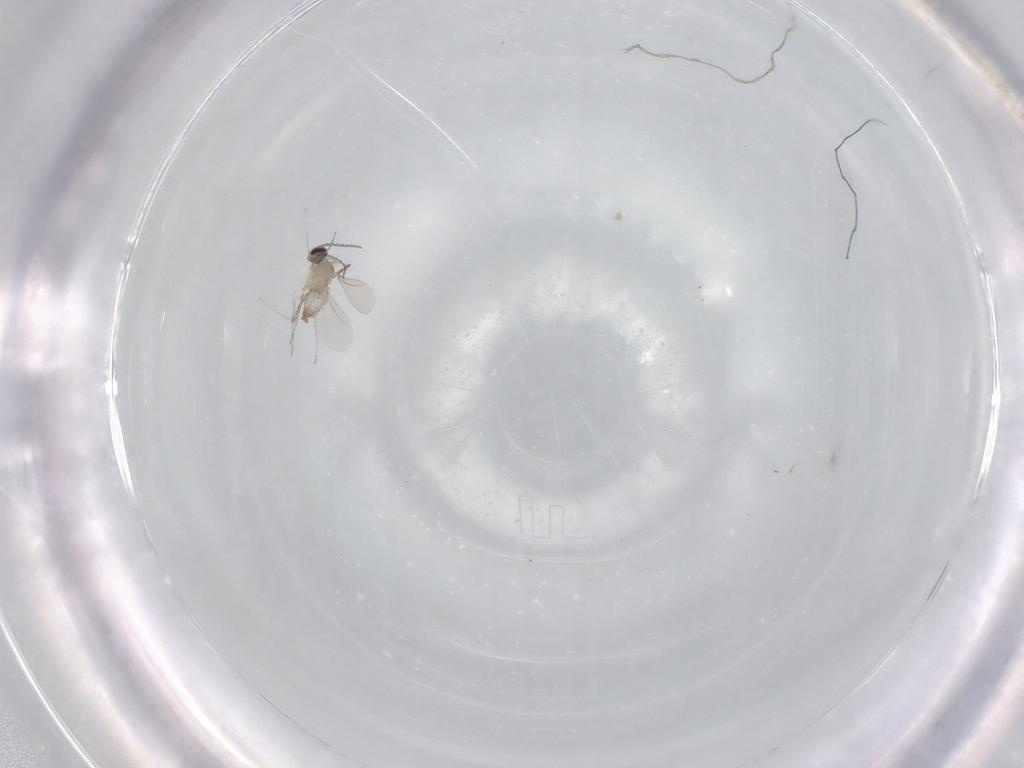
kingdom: Animalia
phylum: Arthropoda
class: Insecta
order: Diptera
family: Cecidomyiidae
